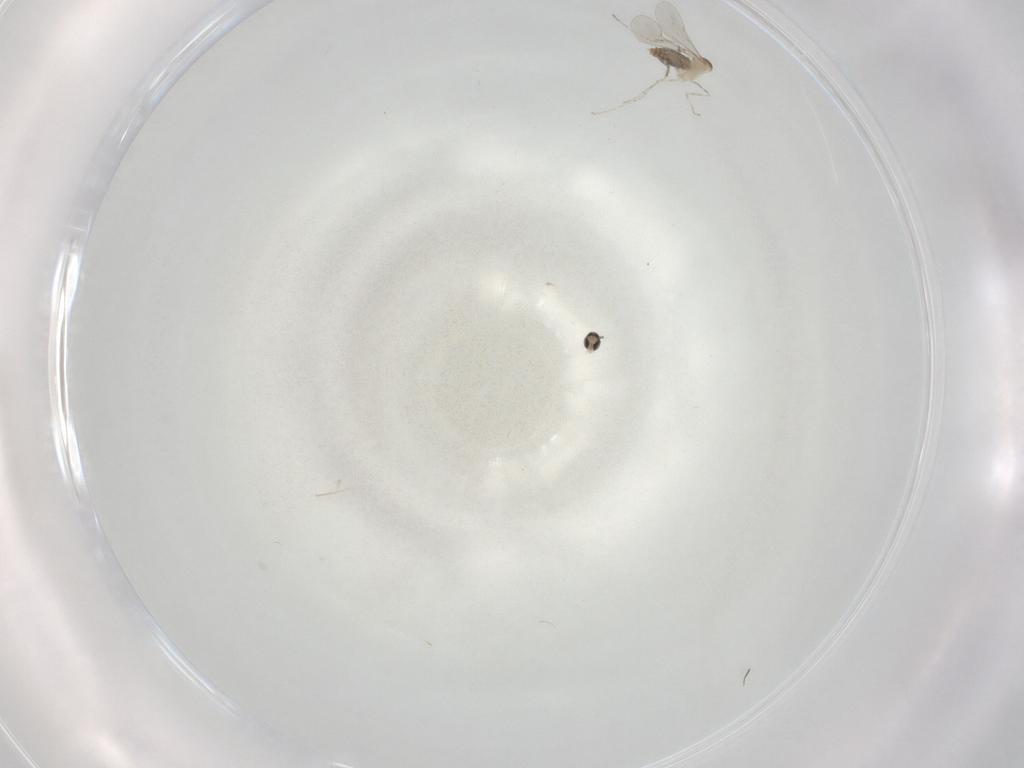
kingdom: Animalia
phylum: Arthropoda
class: Insecta
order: Diptera
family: Cecidomyiidae
